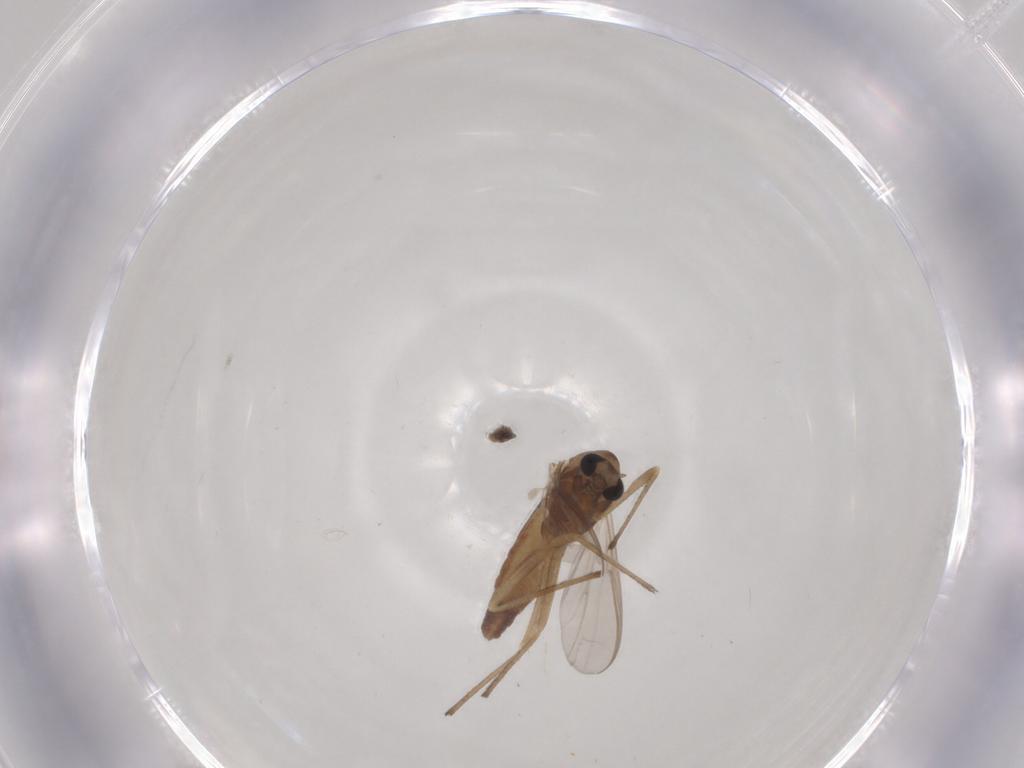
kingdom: Animalia
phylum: Arthropoda
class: Insecta
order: Diptera
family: Chironomidae
